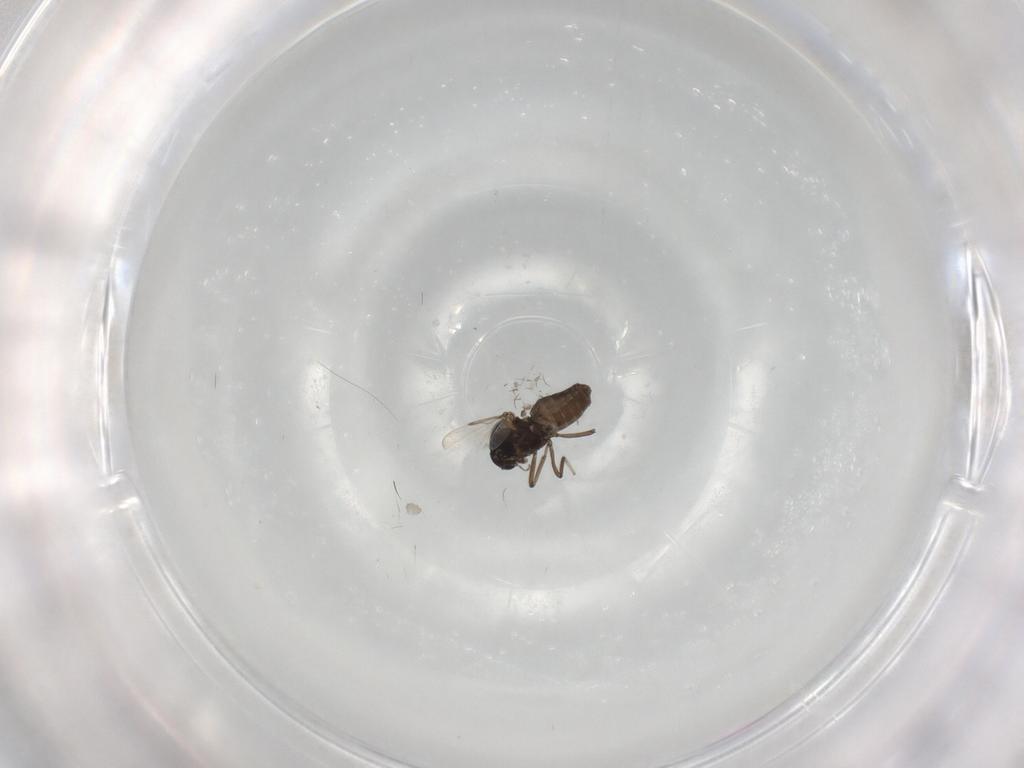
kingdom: Animalia
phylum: Arthropoda
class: Insecta
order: Diptera
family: Ceratopogonidae
